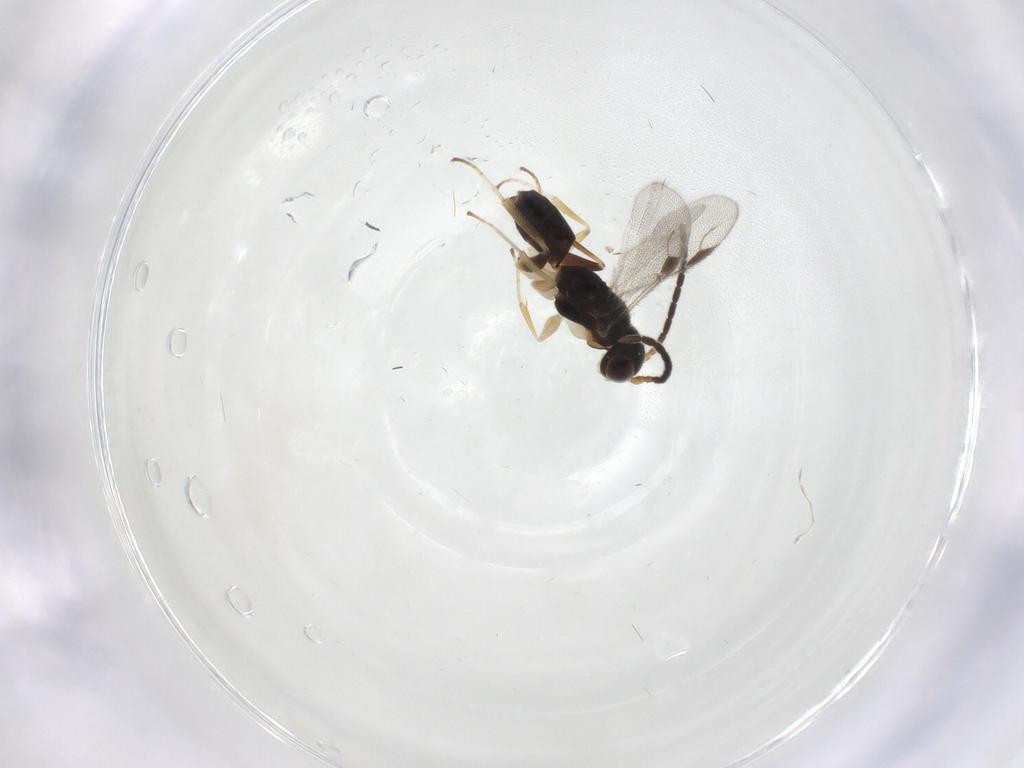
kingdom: Animalia
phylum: Arthropoda
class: Insecta
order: Hymenoptera
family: Dryinidae
